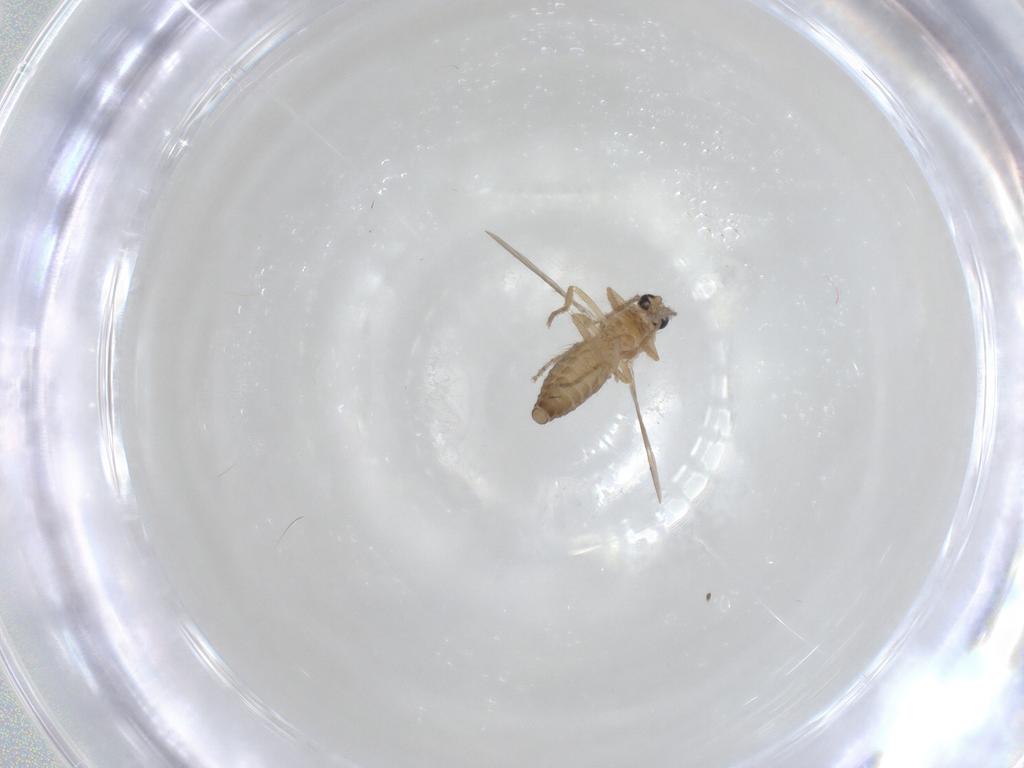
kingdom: Animalia
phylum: Arthropoda
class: Insecta
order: Diptera
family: Ceratopogonidae
